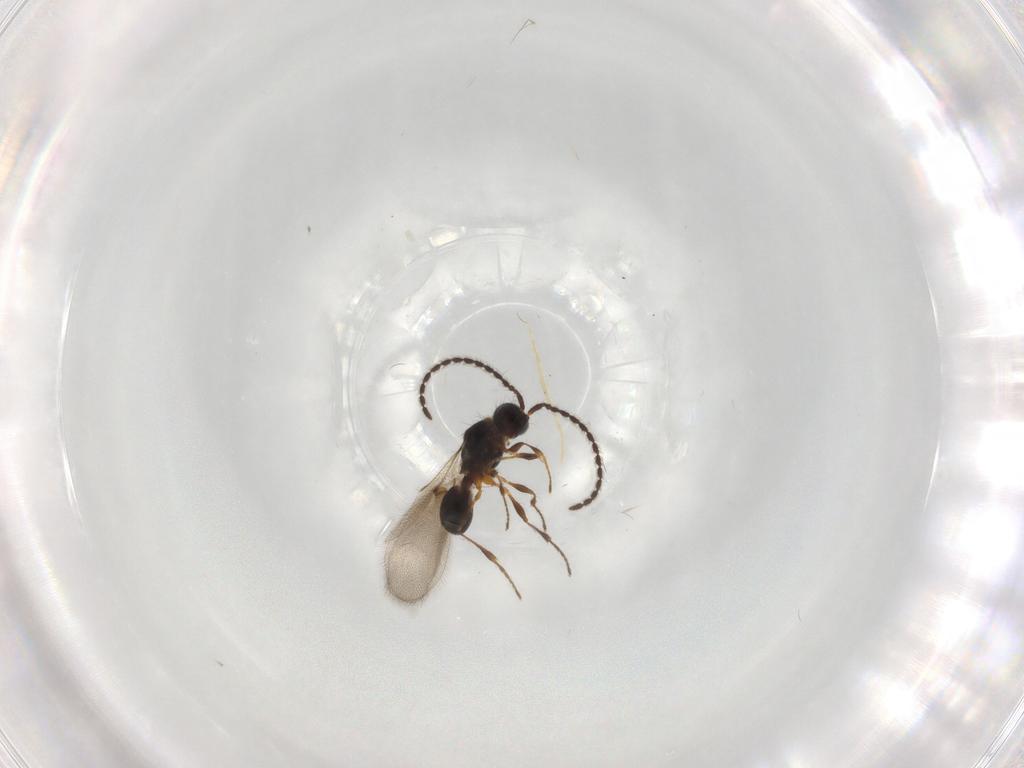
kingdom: Animalia
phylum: Arthropoda
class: Insecta
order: Hymenoptera
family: Diapriidae
